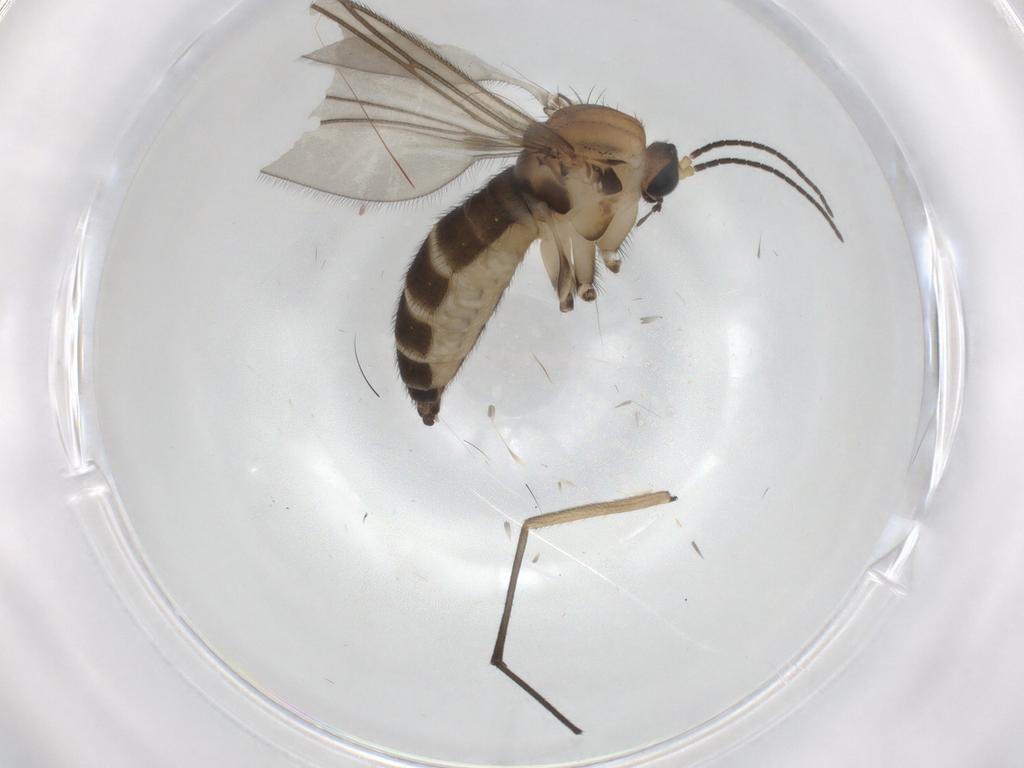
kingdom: Animalia
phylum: Arthropoda
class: Insecta
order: Diptera
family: Sciaridae
